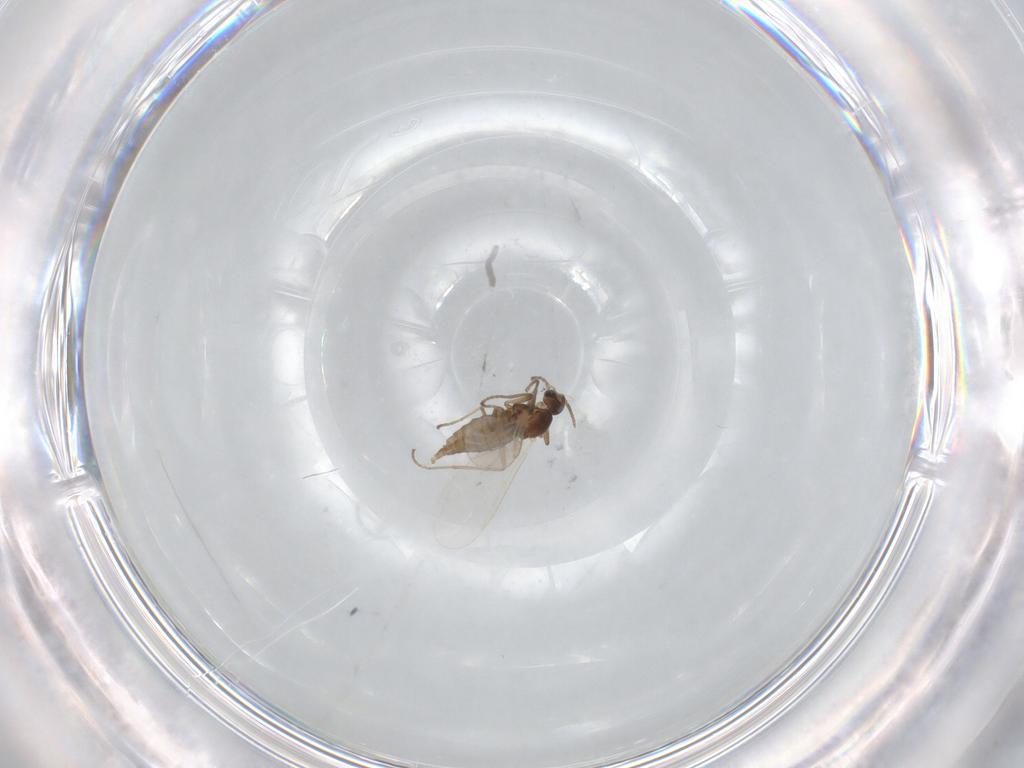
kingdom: Animalia
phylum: Arthropoda
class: Insecta
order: Diptera
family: Cecidomyiidae
